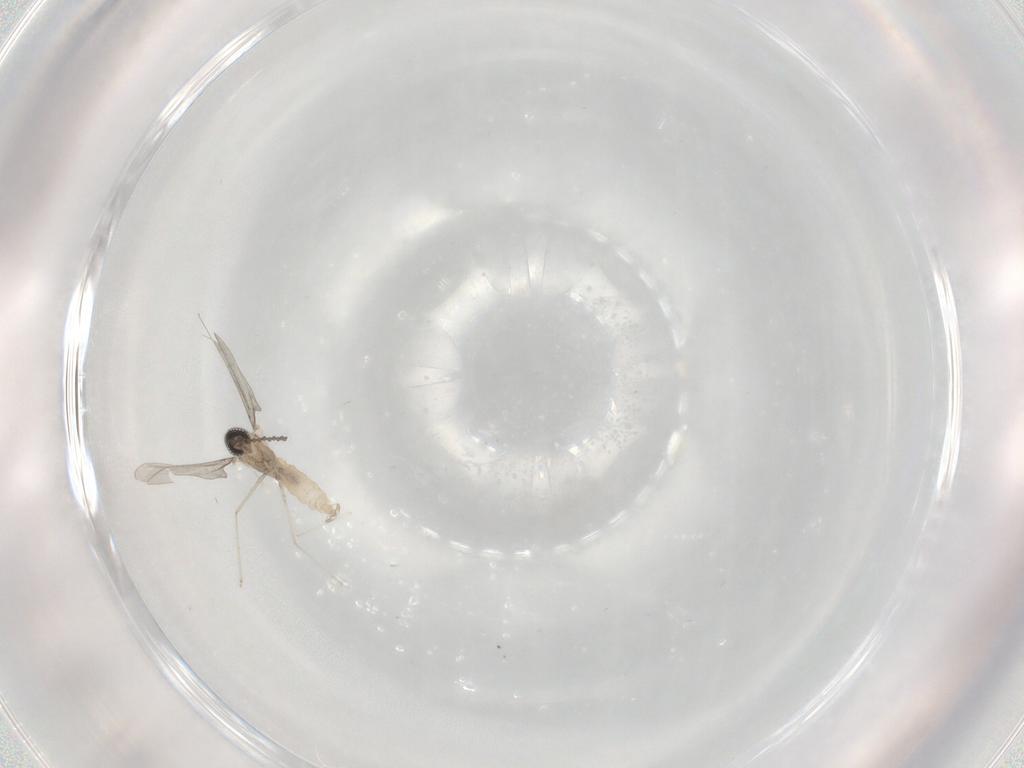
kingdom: Animalia
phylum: Arthropoda
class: Insecta
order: Diptera
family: Cecidomyiidae
